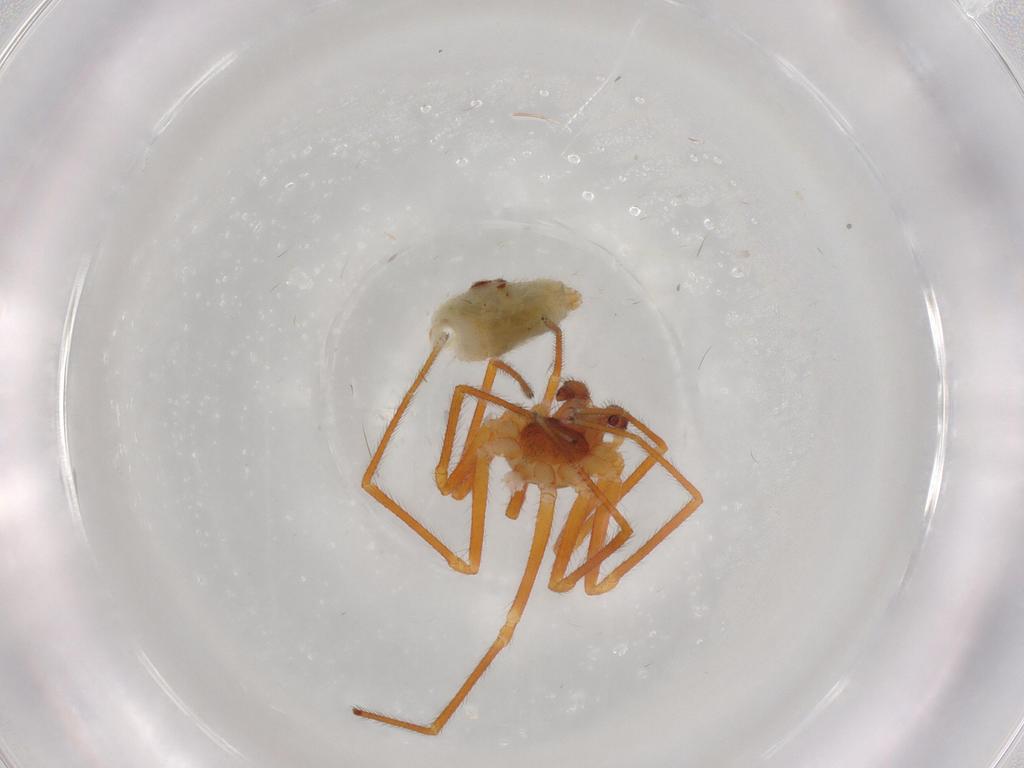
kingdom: Animalia
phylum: Arthropoda
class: Arachnida
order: Araneae
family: Linyphiidae
